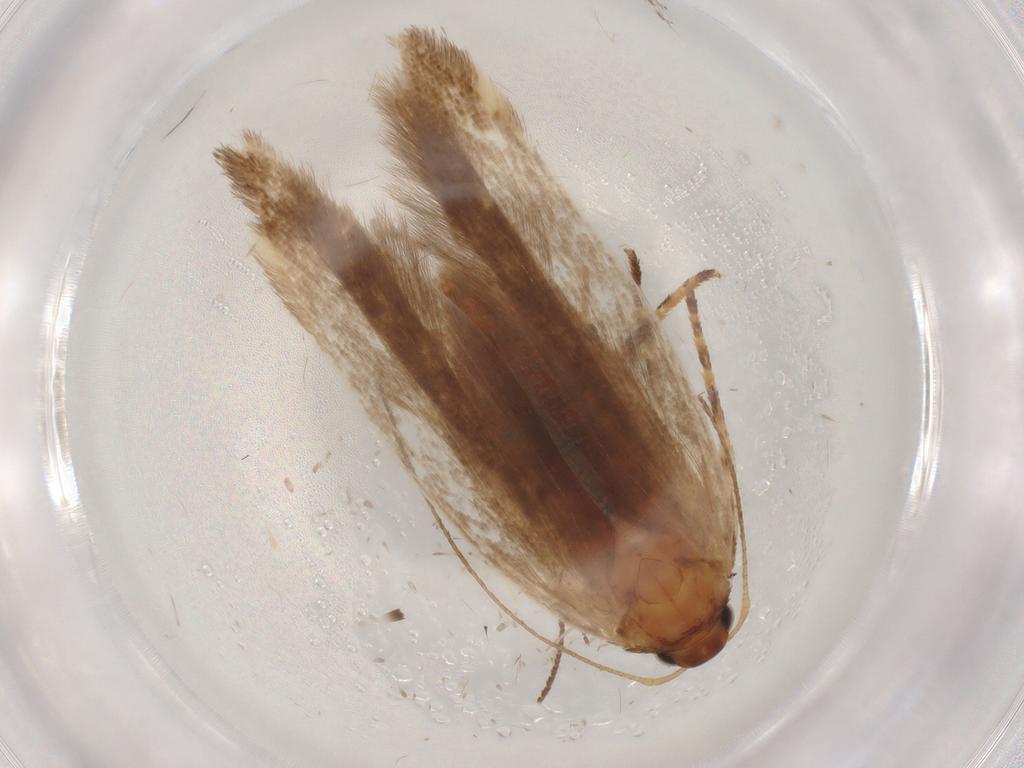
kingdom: Animalia
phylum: Arthropoda
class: Insecta
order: Lepidoptera
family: Gelechiidae
